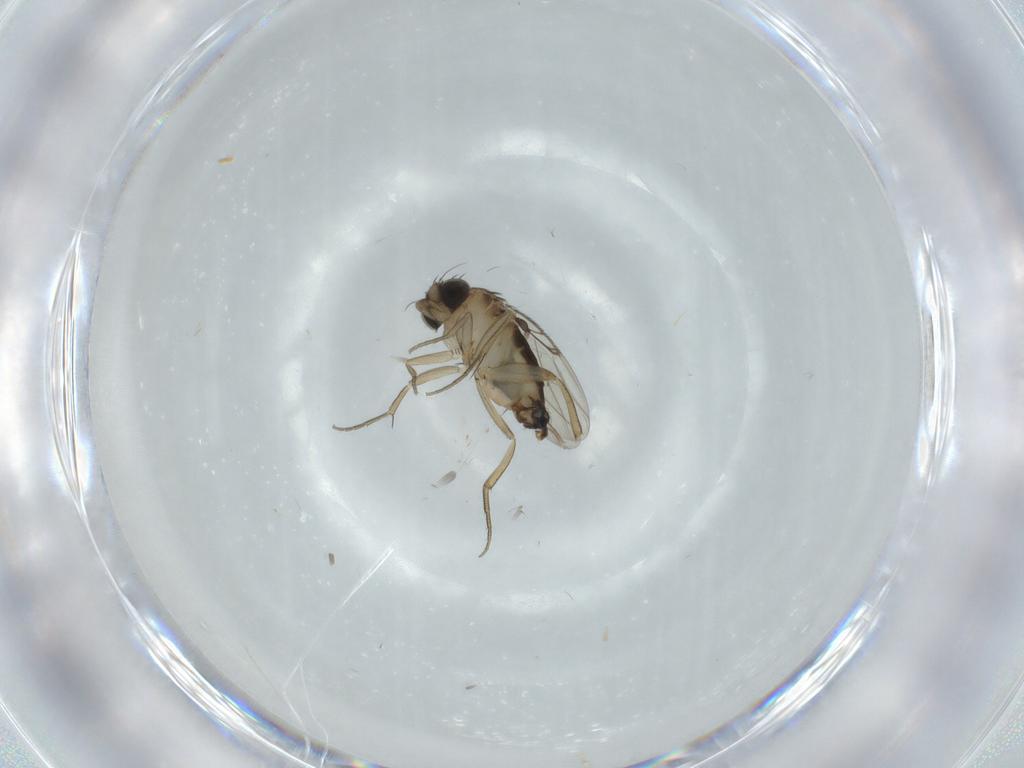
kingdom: Animalia
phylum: Arthropoda
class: Insecta
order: Diptera
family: Phoridae
